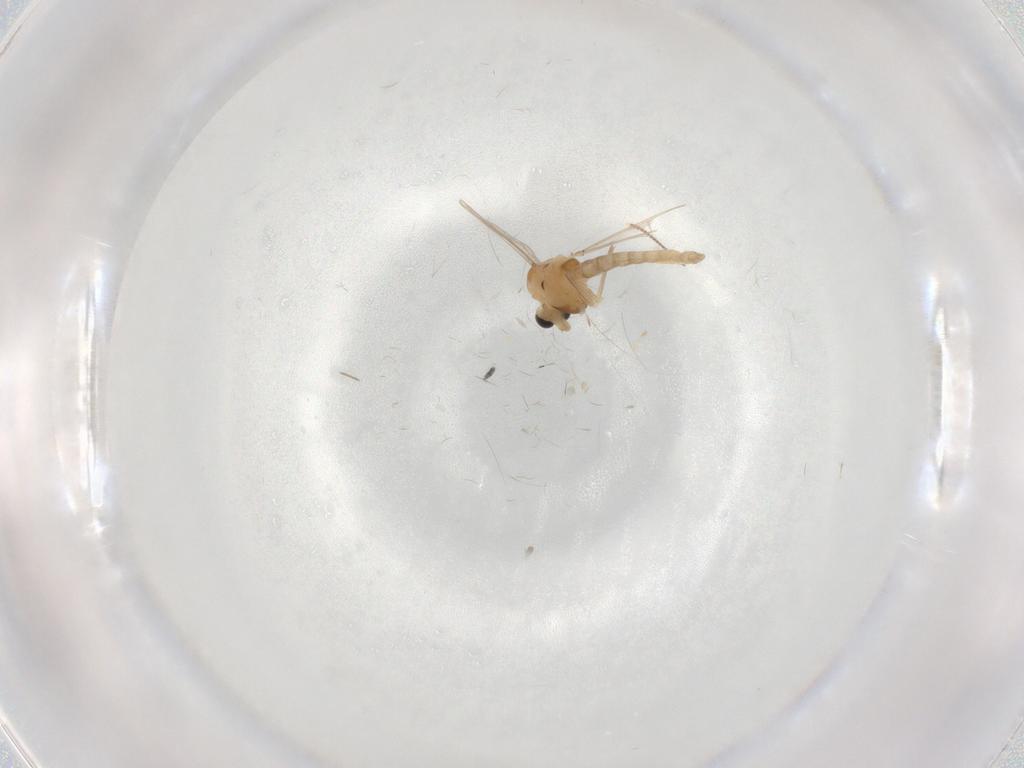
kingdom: Animalia
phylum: Arthropoda
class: Insecta
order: Diptera
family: Chironomidae
